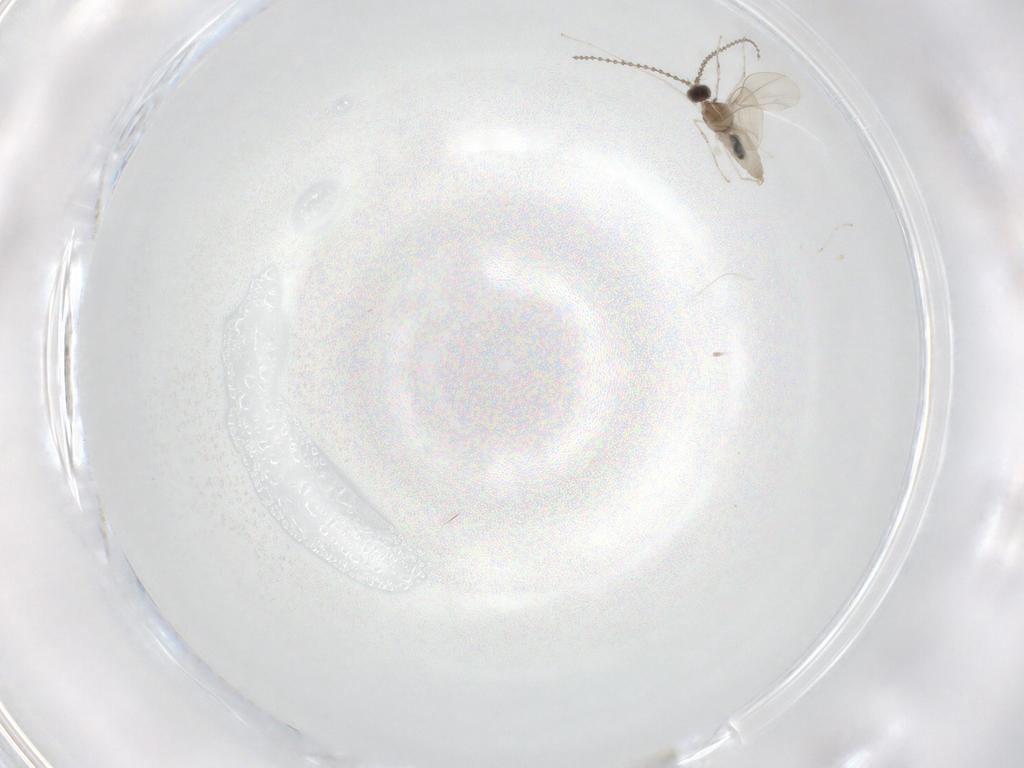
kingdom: Animalia
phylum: Arthropoda
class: Insecta
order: Diptera
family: Cecidomyiidae
